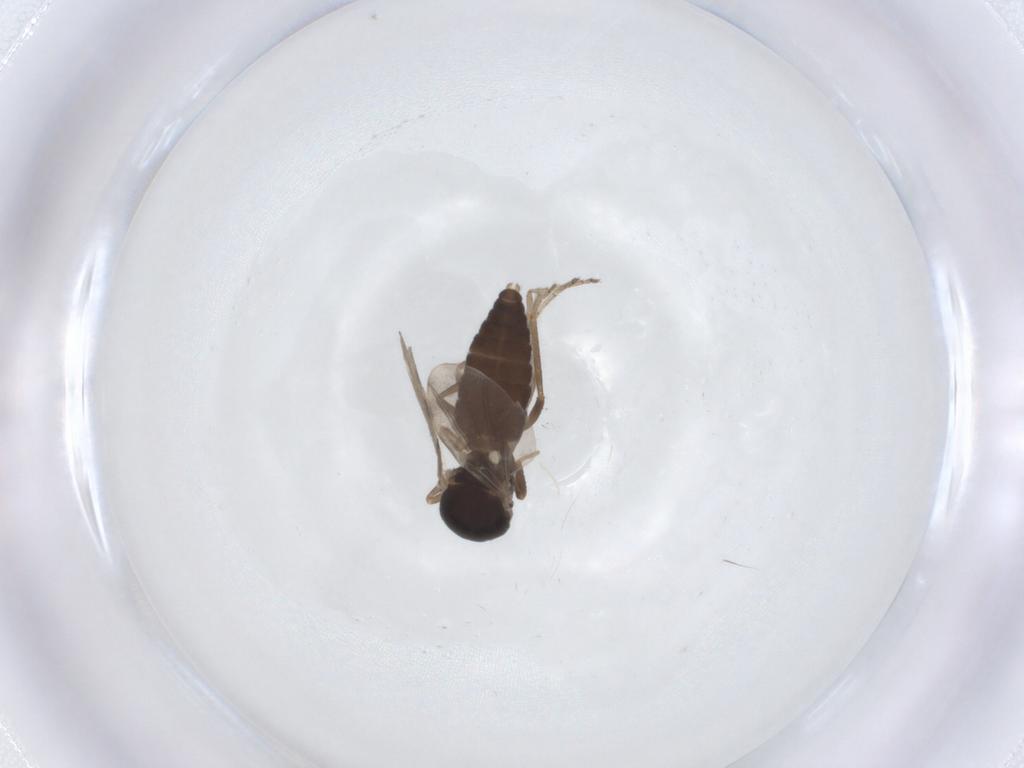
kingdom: Animalia
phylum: Arthropoda
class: Insecta
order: Diptera
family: Ceratopogonidae
